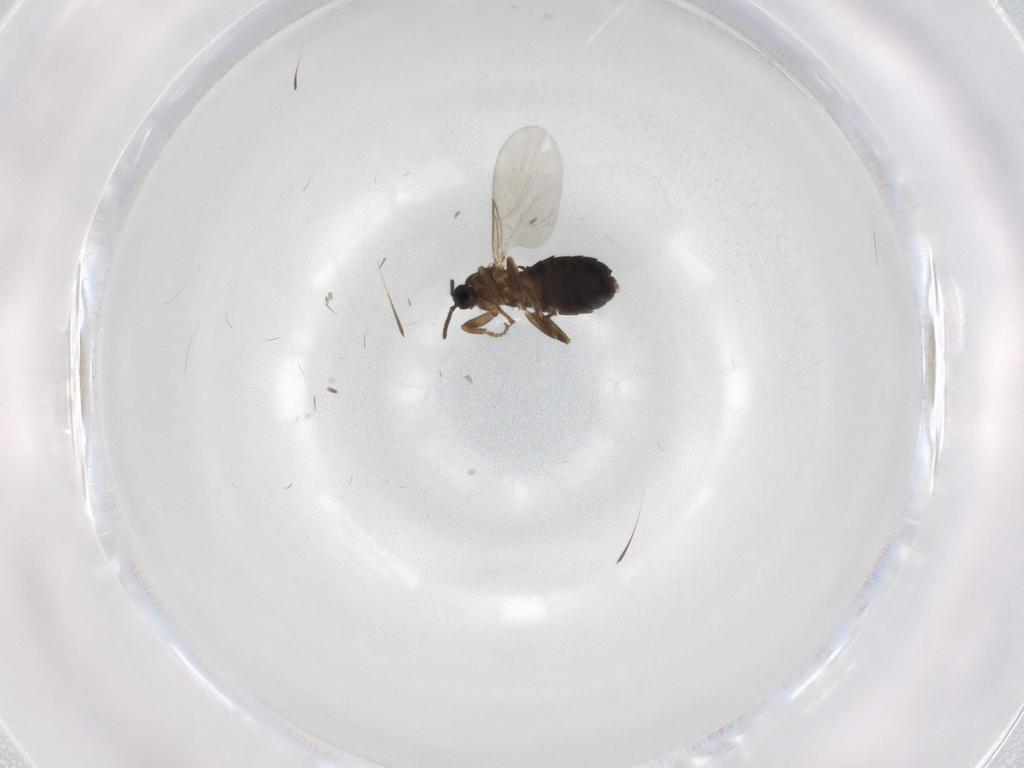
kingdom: Animalia
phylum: Arthropoda
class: Insecta
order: Diptera
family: Scatopsidae
